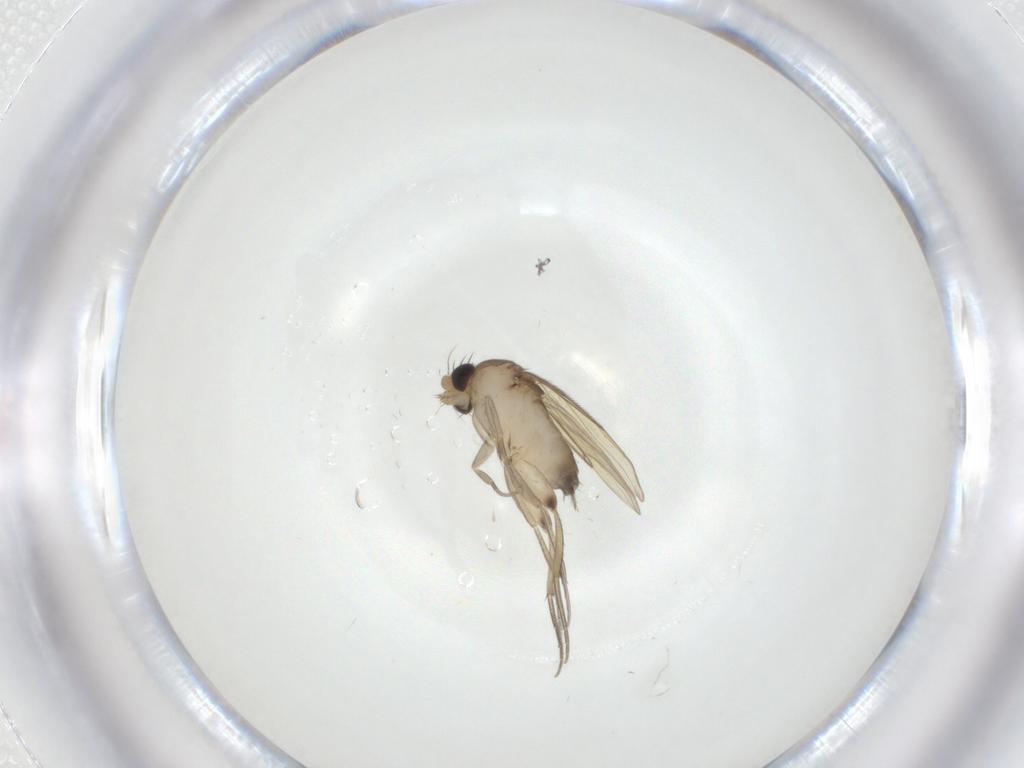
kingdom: Animalia
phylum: Arthropoda
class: Insecta
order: Diptera
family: Phoridae
